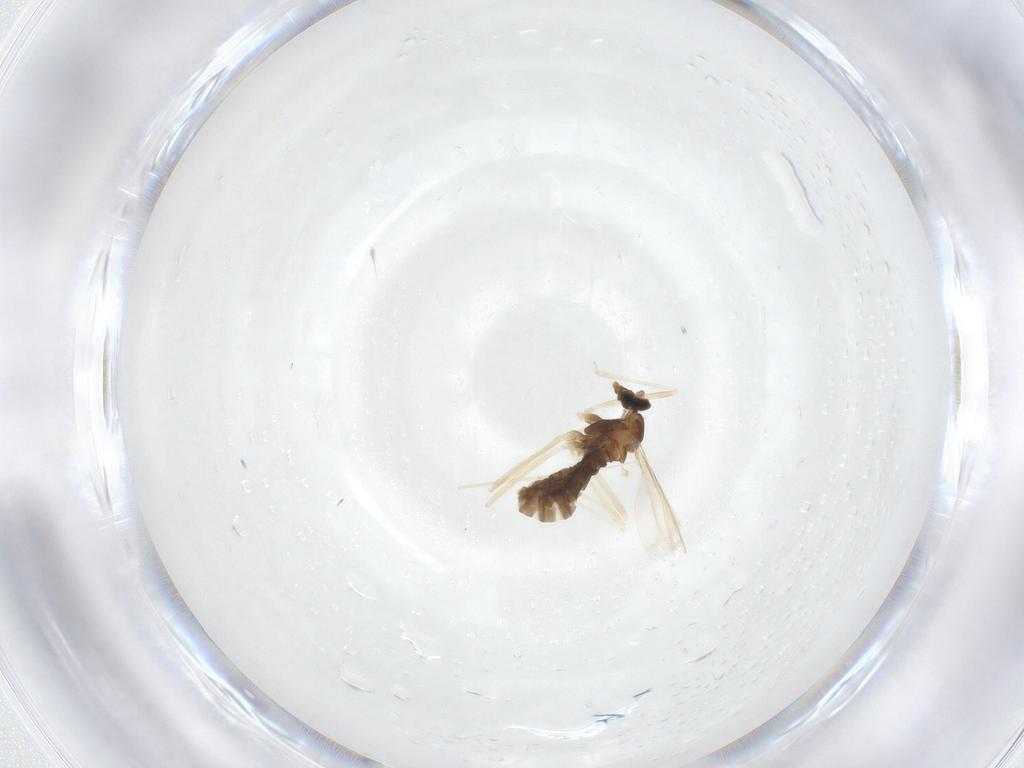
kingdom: Animalia
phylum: Arthropoda
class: Insecta
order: Diptera
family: Cecidomyiidae
